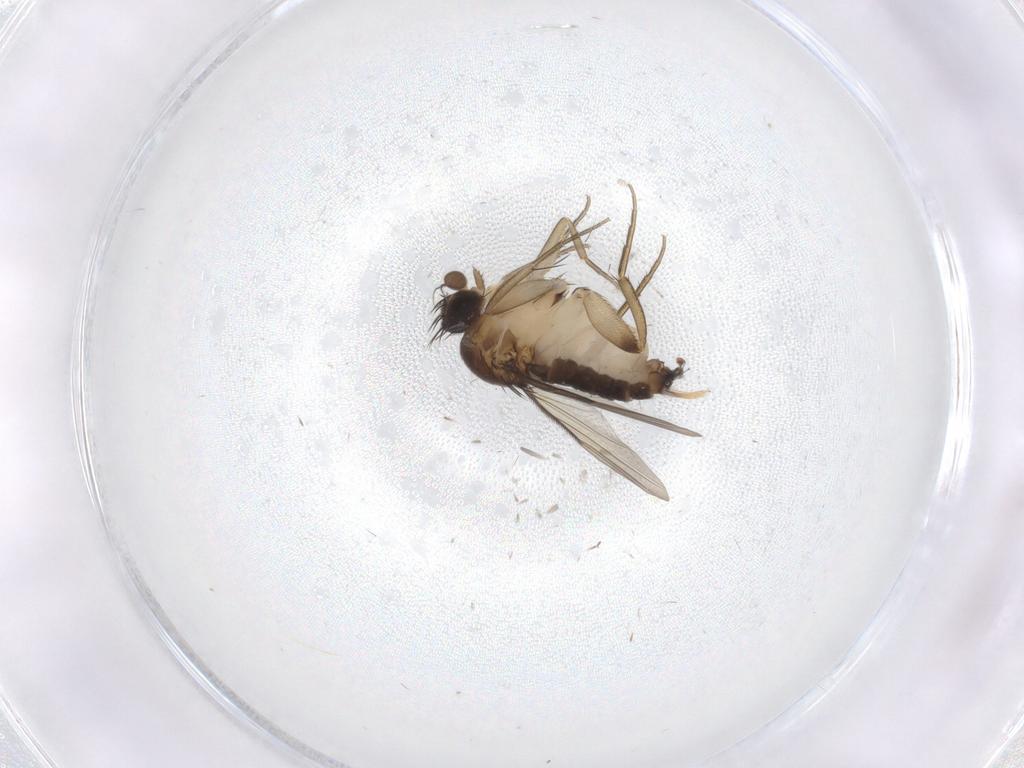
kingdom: Animalia
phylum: Arthropoda
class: Insecta
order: Diptera
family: Phoridae
